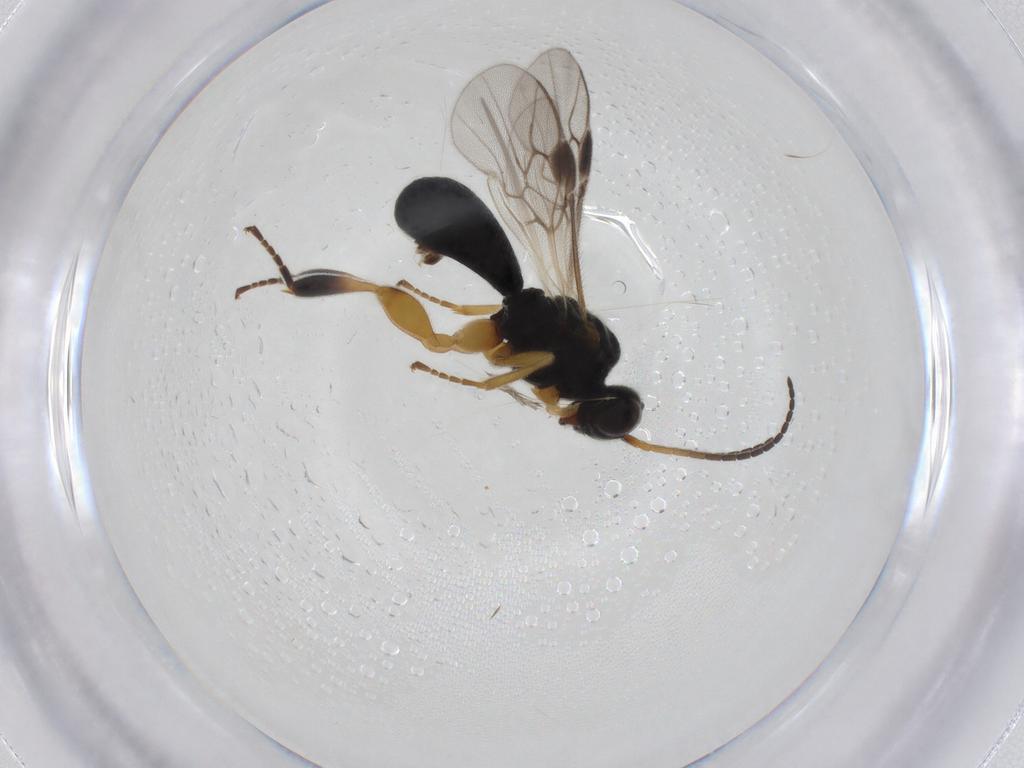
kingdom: Animalia
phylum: Arthropoda
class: Insecta
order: Hymenoptera
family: Braconidae
